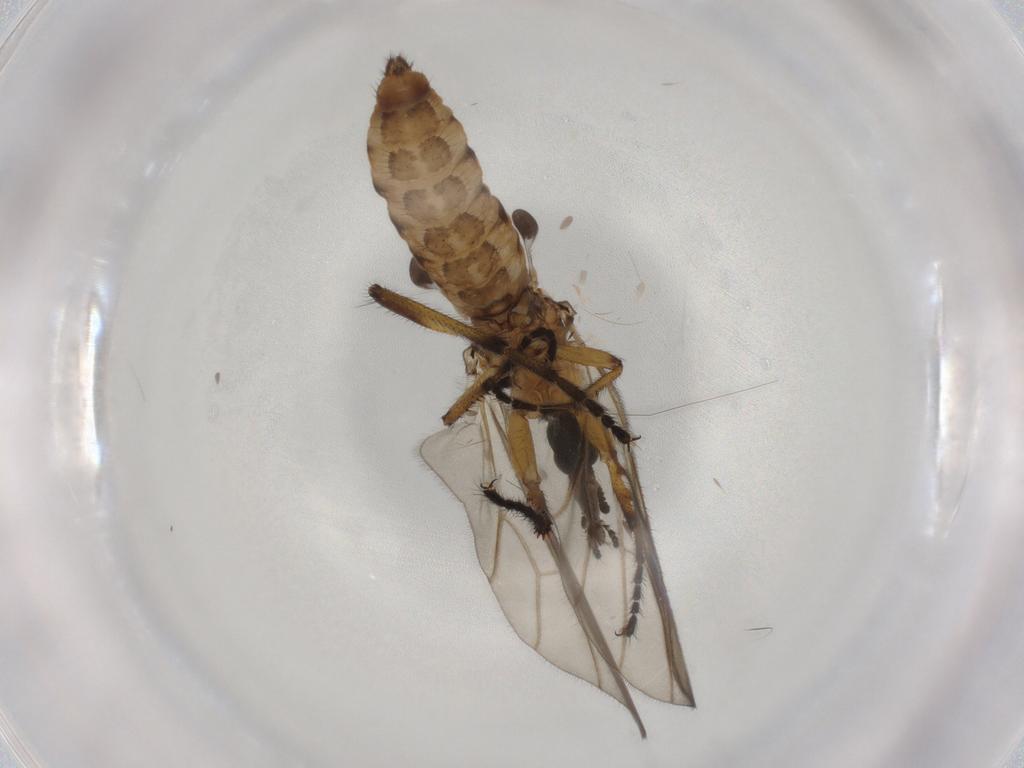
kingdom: Animalia
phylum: Arthropoda
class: Insecta
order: Diptera
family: Bibionidae
